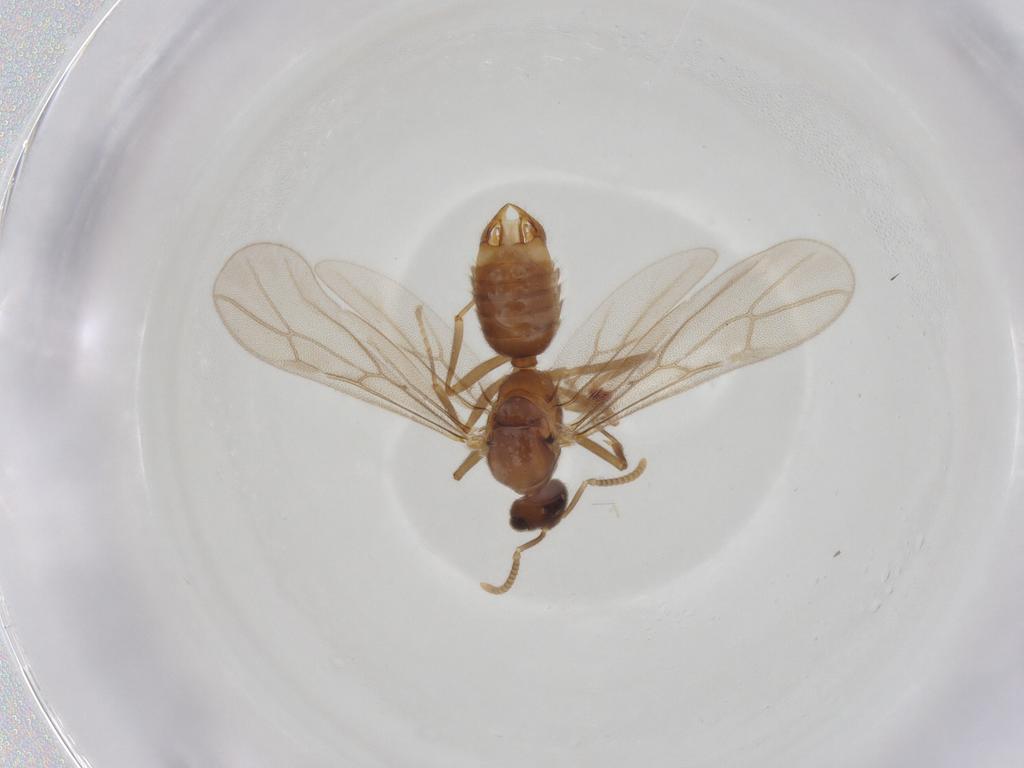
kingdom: Animalia
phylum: Arthropoda
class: Insecta
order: Hymenoptera
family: Formicidae
